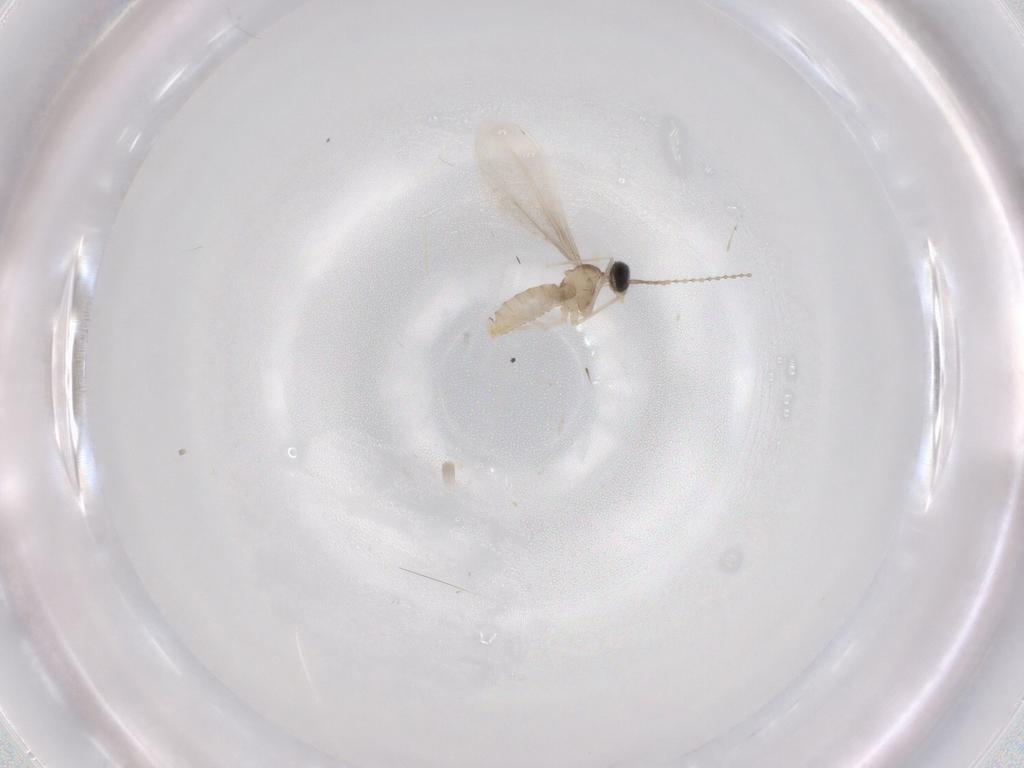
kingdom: Animalia
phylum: Arthropoda
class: Insecta
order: Diptera
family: Cecidomyiidae
